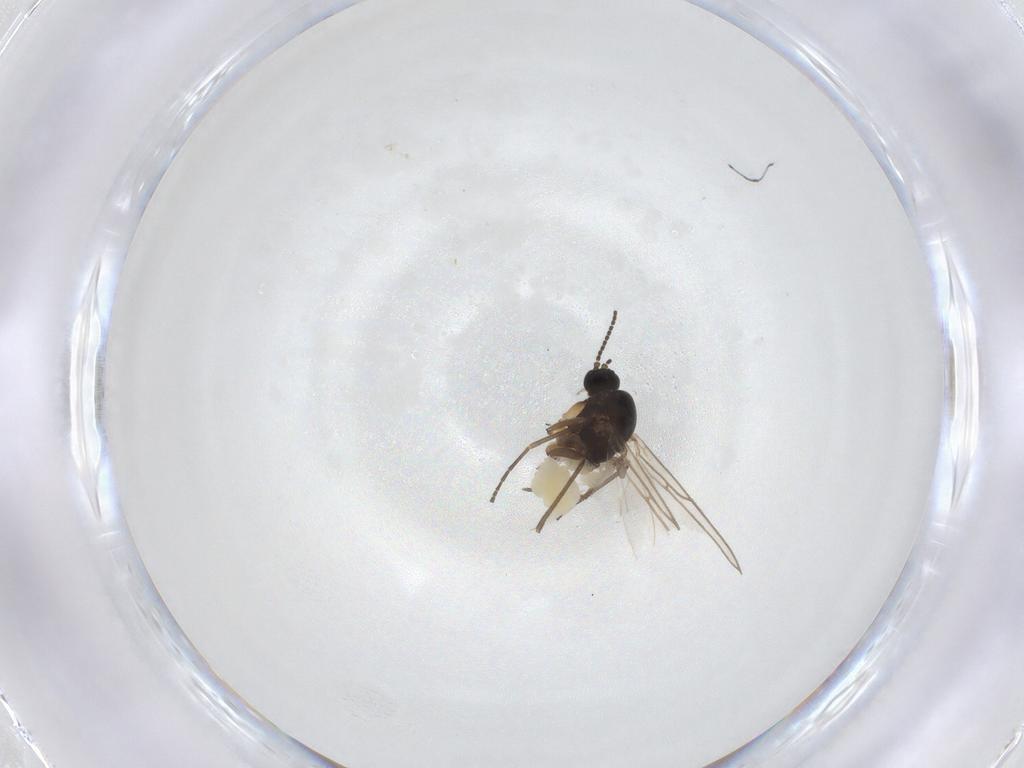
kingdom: Animalia
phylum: Arthropoda
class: Insecta
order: Diptera
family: Sciaridae
